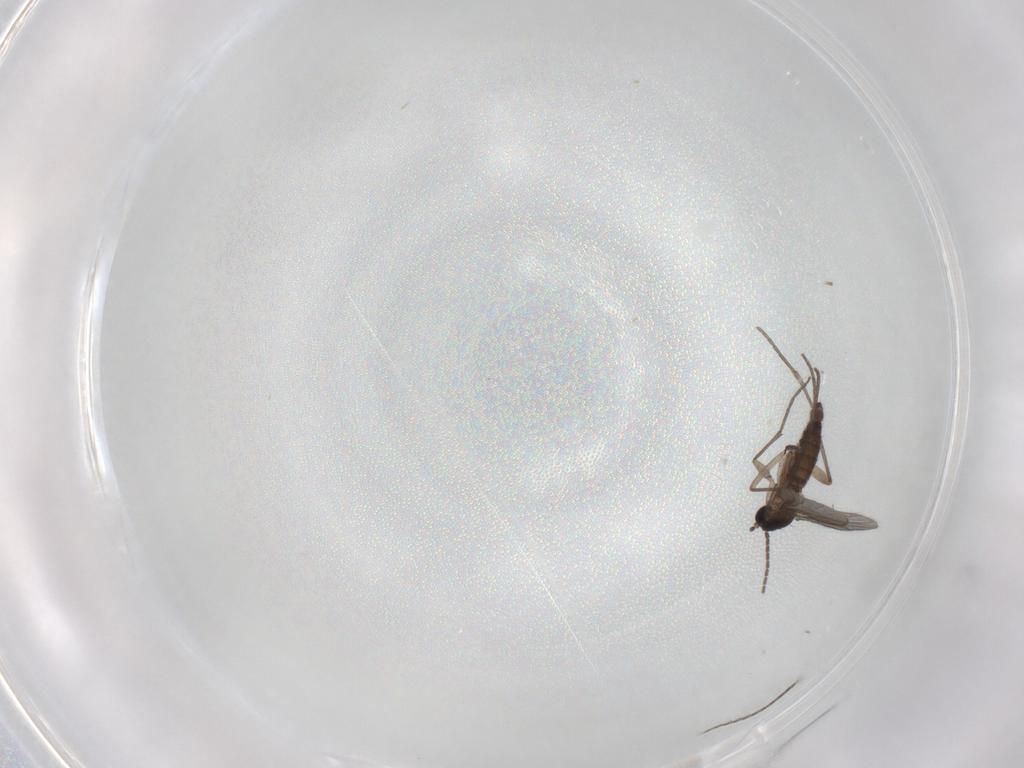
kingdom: Animalia
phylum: Arthropoda
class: Insecta
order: Diptera
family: Sciaridae
